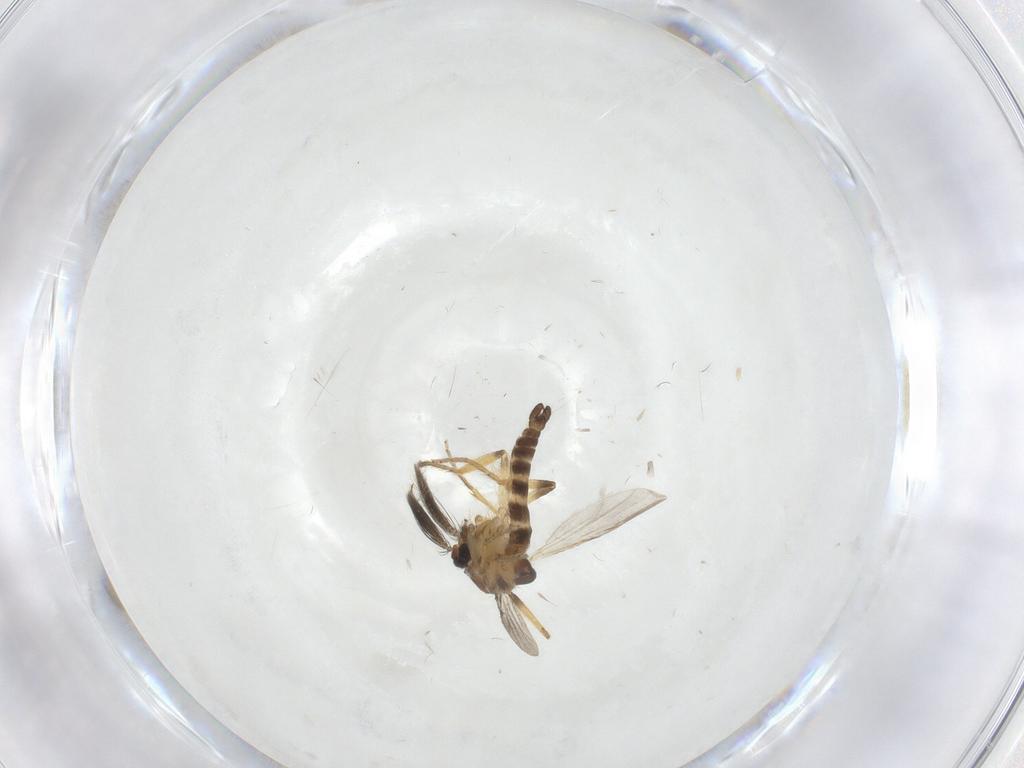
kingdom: Animalia
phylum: Arthropoda
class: Insecta
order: Diptera
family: Ceratopogonidae
